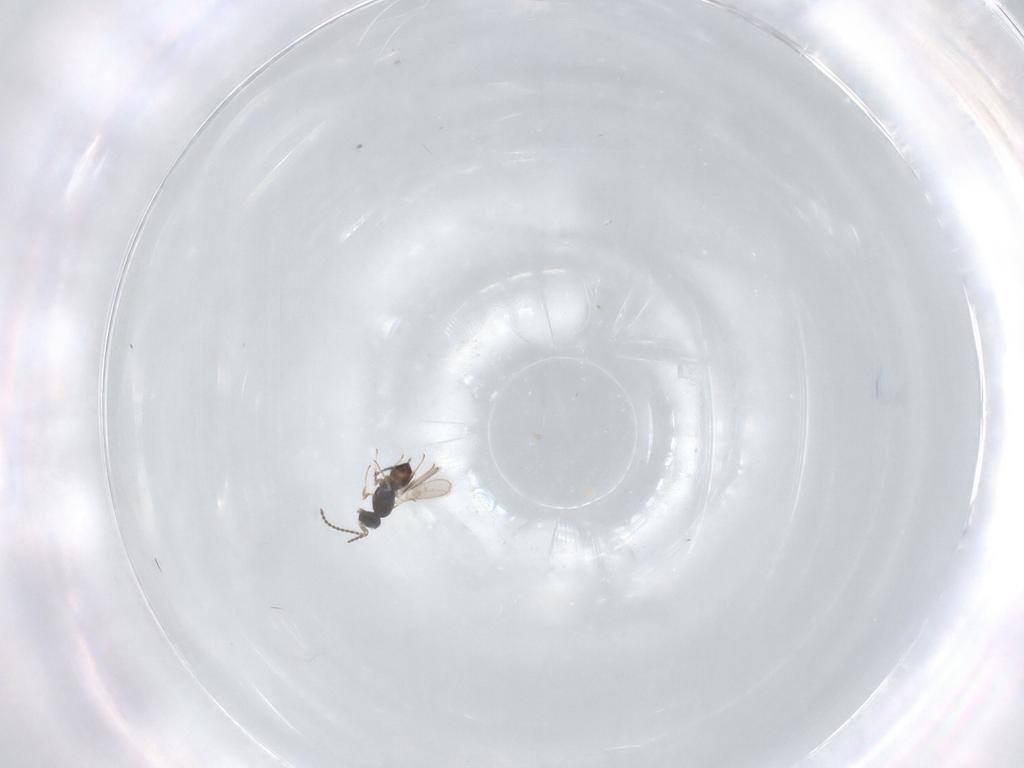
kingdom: Animalia
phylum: Arthropoda
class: Insecta
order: Hymenoptera
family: Scelionidae
